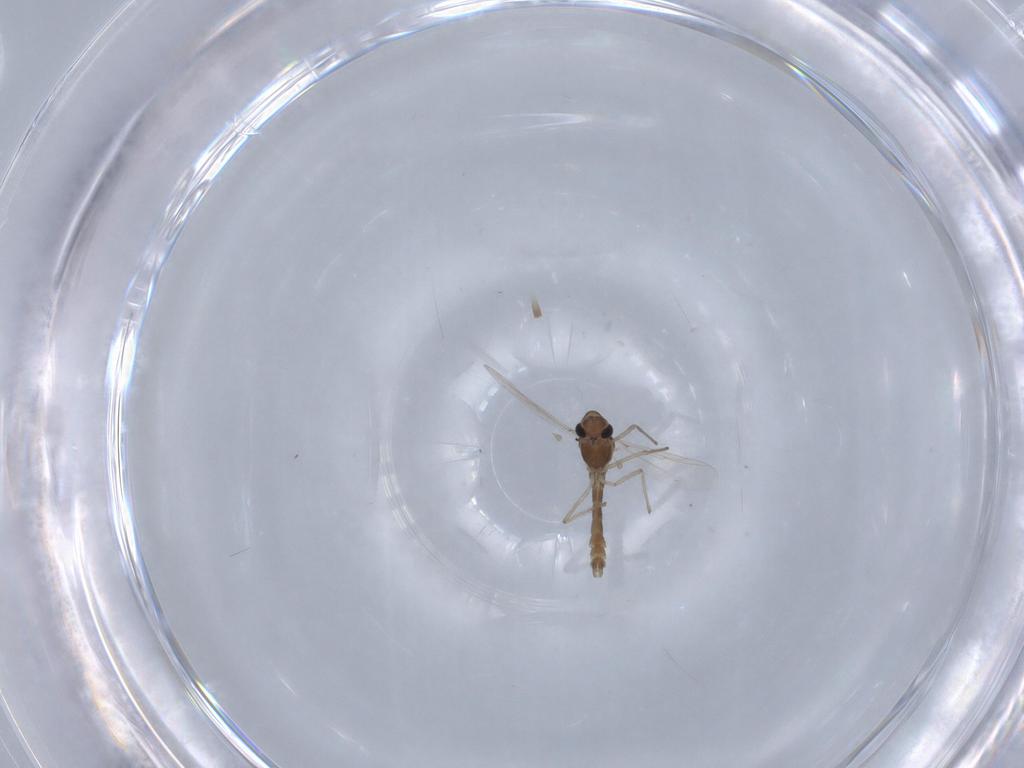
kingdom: Animalia
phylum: Arthropoda
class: Insecta
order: Diptera
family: Chironomidae
